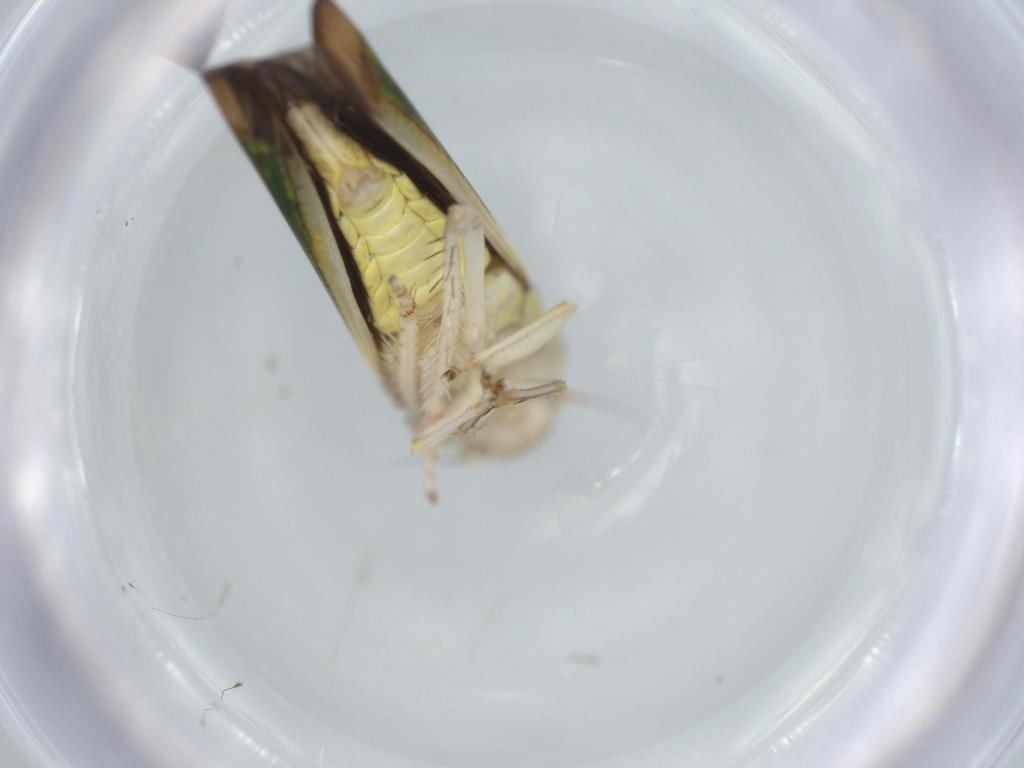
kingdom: Animalia
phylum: Arthropoda
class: Insecta
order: Hemiptera
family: Cicadellidae
